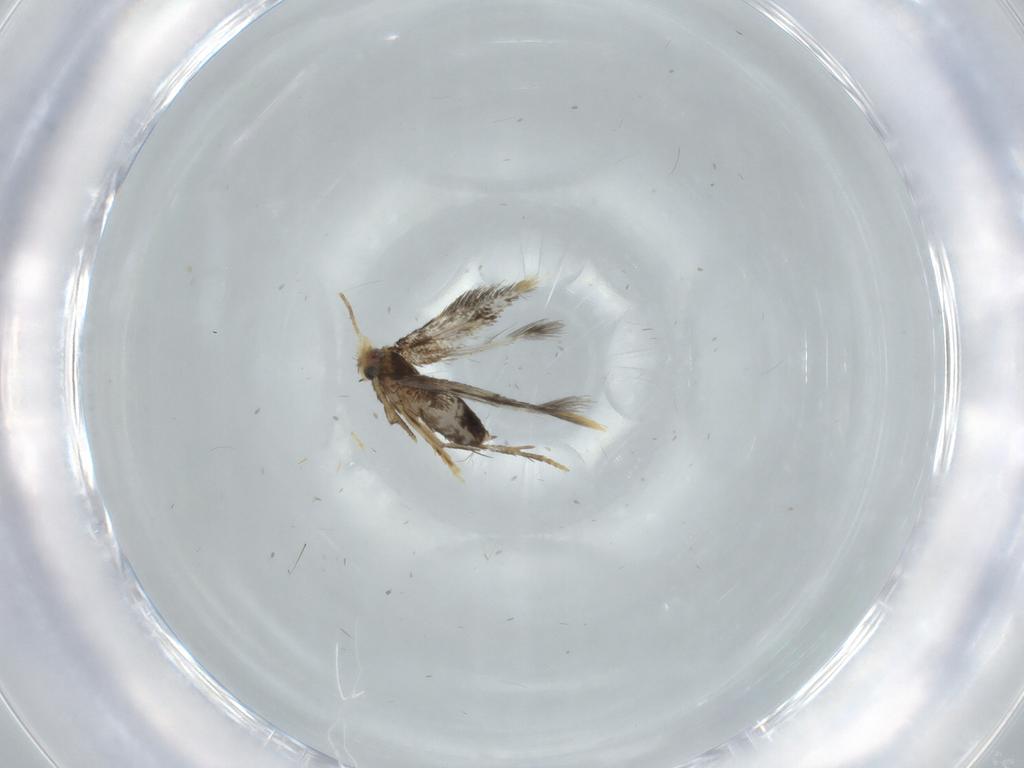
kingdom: Animalia
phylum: Arthropoda
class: Insecta
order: Lepidoptera
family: Copromorphidae
